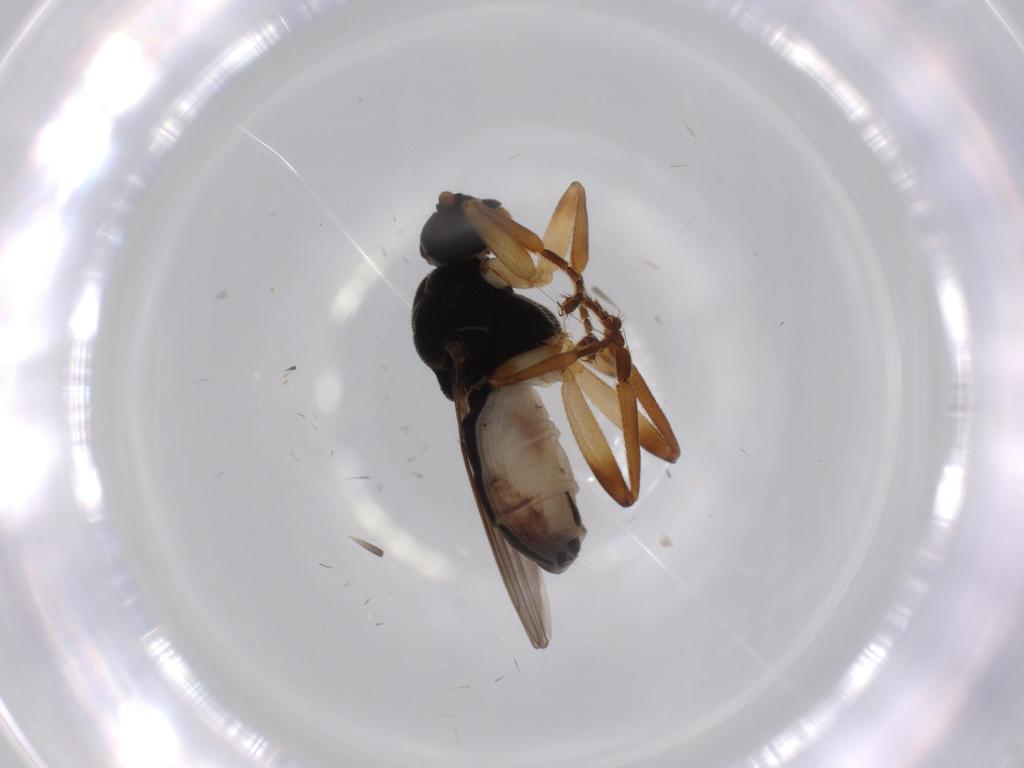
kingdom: Animalia
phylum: Arthropoda
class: Insecta
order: Diptera
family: Sphaeroceridae
